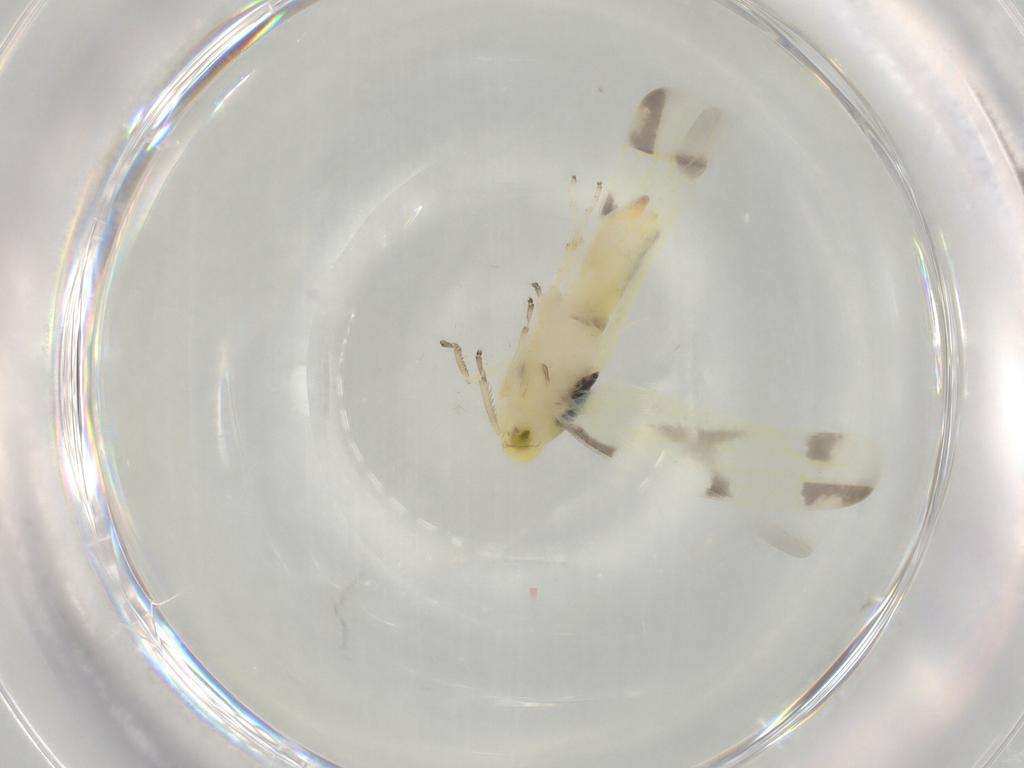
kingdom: Animalia
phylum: Arthropoda
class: Insecta
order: Hemiptera
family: Cicadellidae
